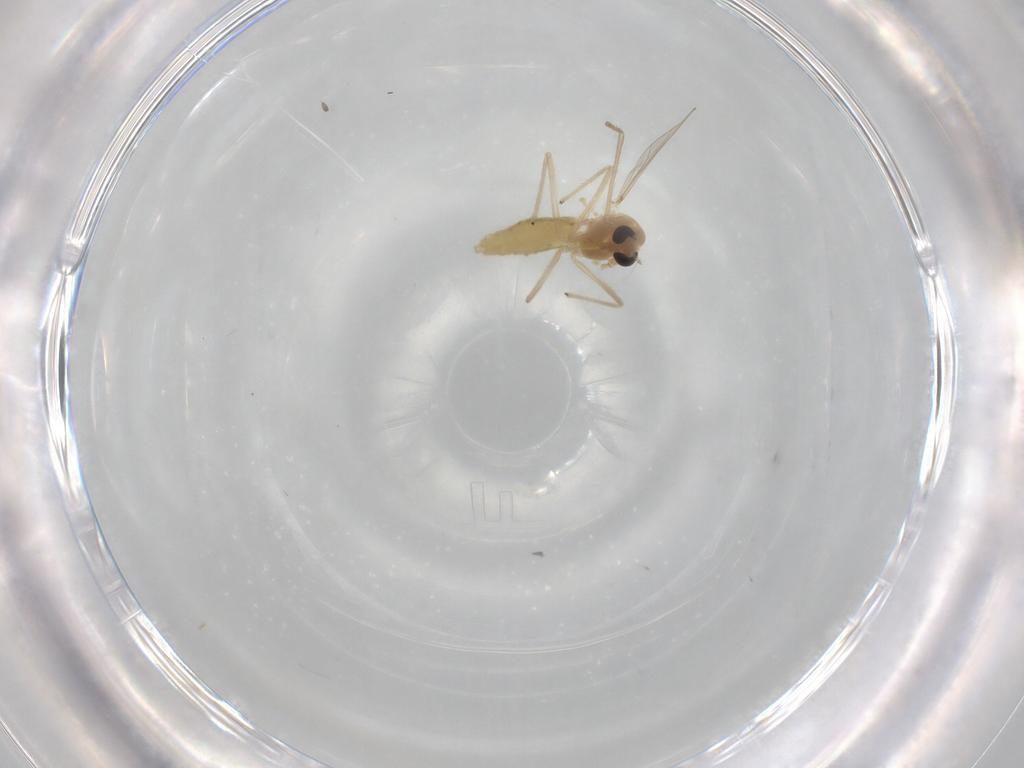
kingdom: Animalia
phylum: Arthropoda
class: Insecta
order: Diptera
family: Chironomidae
